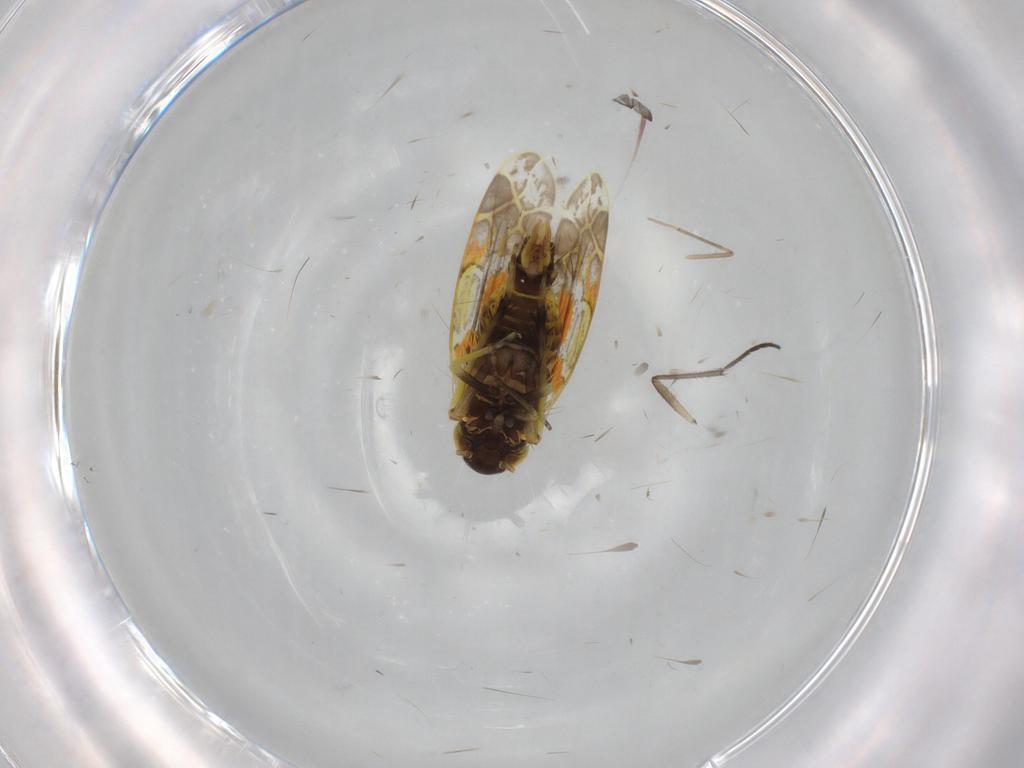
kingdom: Animalia
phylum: Arthropoda
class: Insecta
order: Hemiptera
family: Cicadellidae
